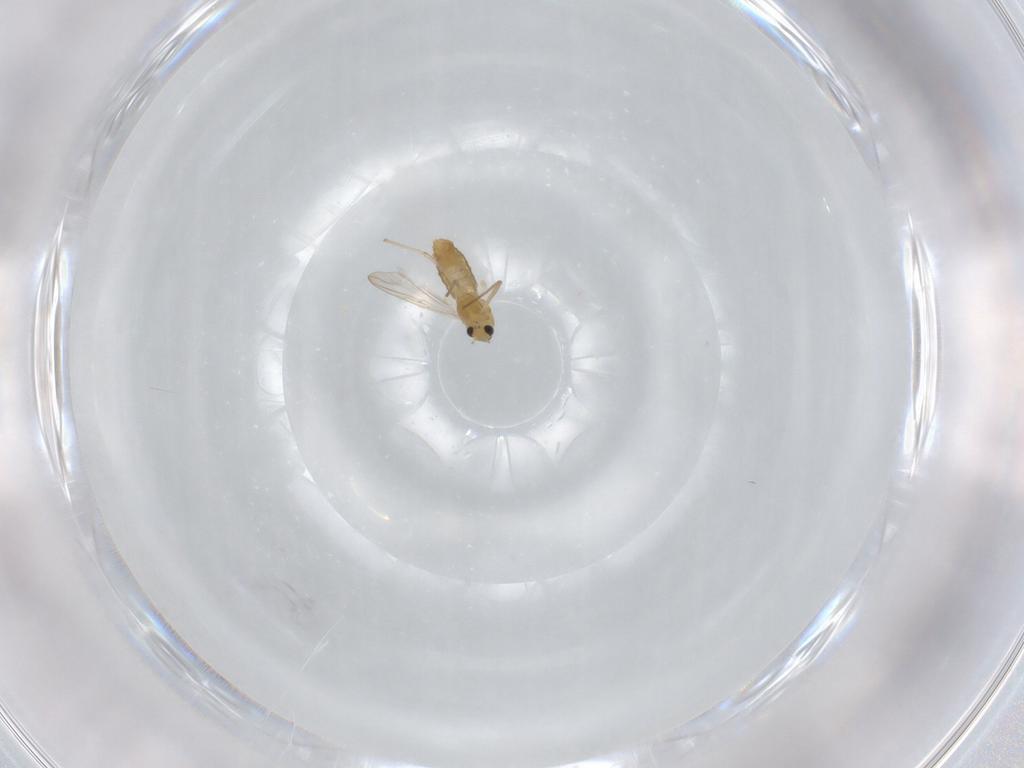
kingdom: Animalia
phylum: Arthropoda
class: Insecta
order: Diptera
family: Chironomidae
